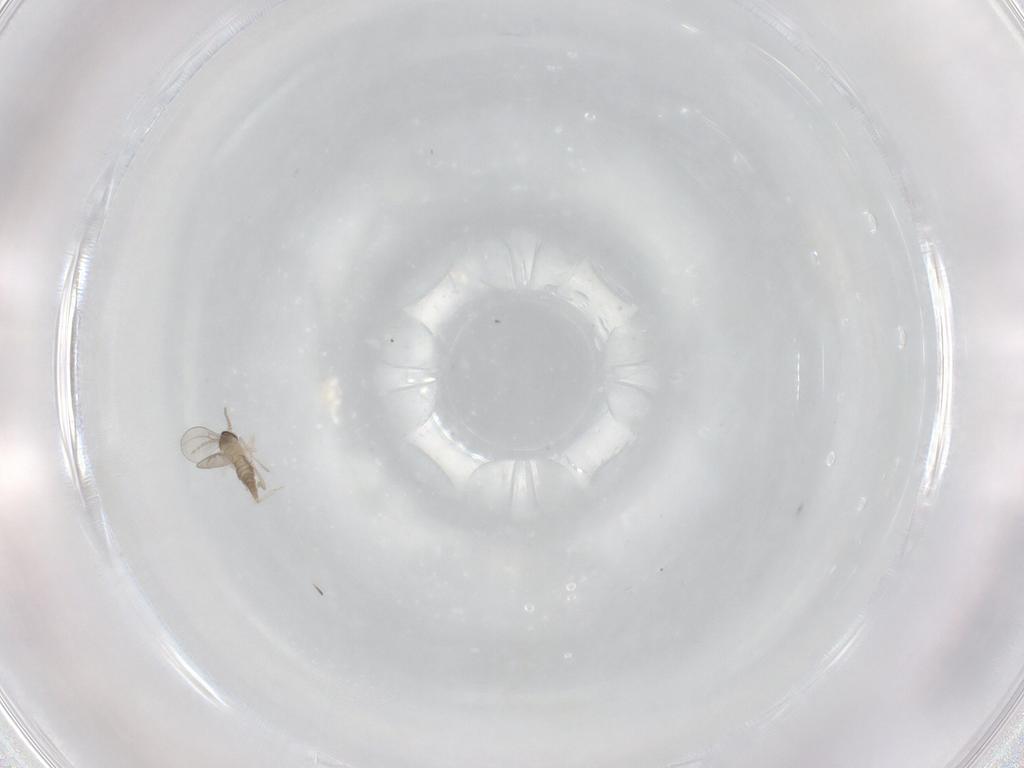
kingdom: Animalia
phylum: Arthropoda
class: Insecta
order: Diptera
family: Cecidomyiidae
